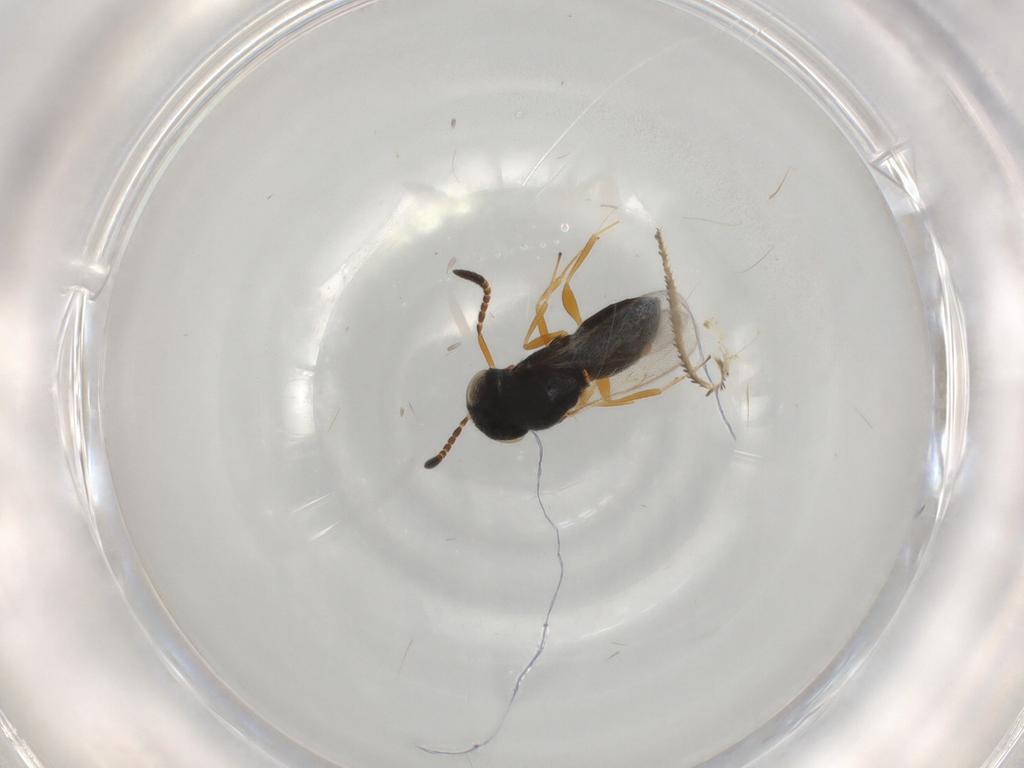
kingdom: Animalia
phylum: Arthropoda
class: Insecta
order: Hymenoptera
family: Scelionidae
